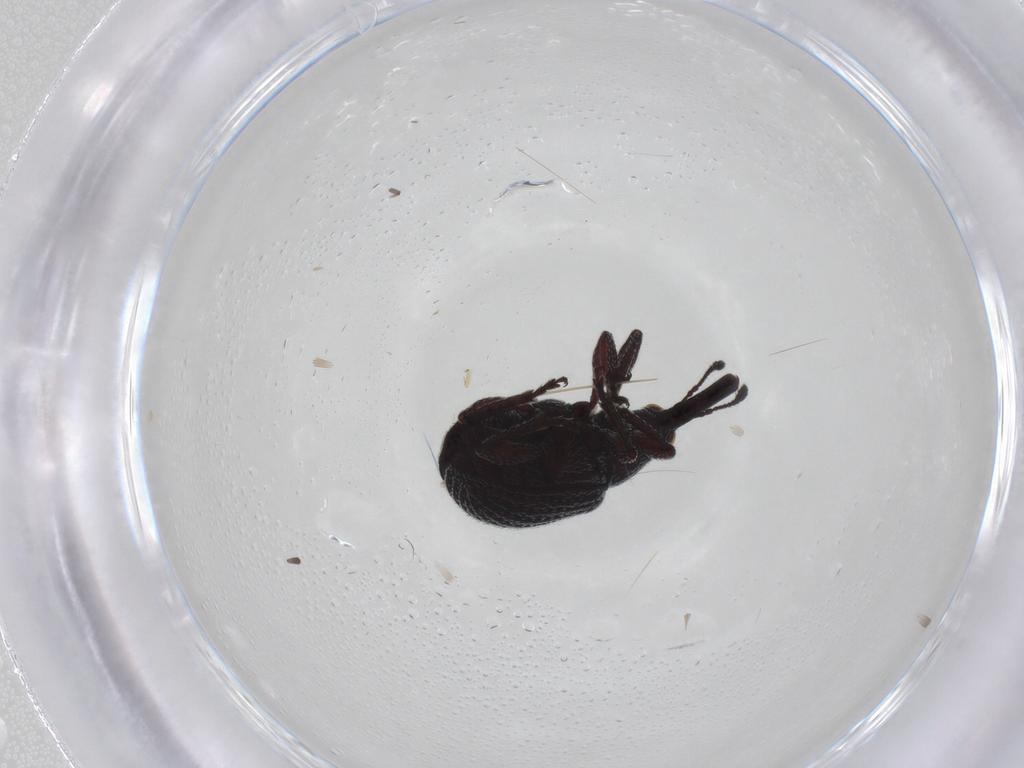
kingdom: Animalia
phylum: Arthropoda
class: Insecta
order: Coleoptera
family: Brentidae
